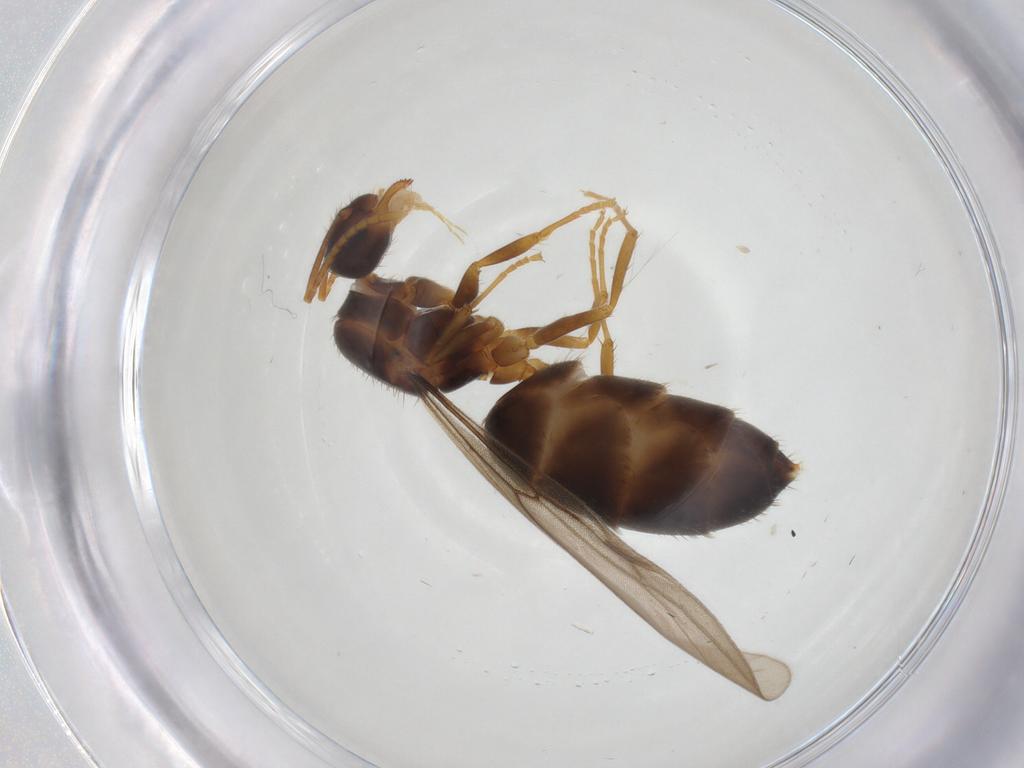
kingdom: Animalia
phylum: Arthropoda
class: Insecta
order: Hymenoptera
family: Formicidae
